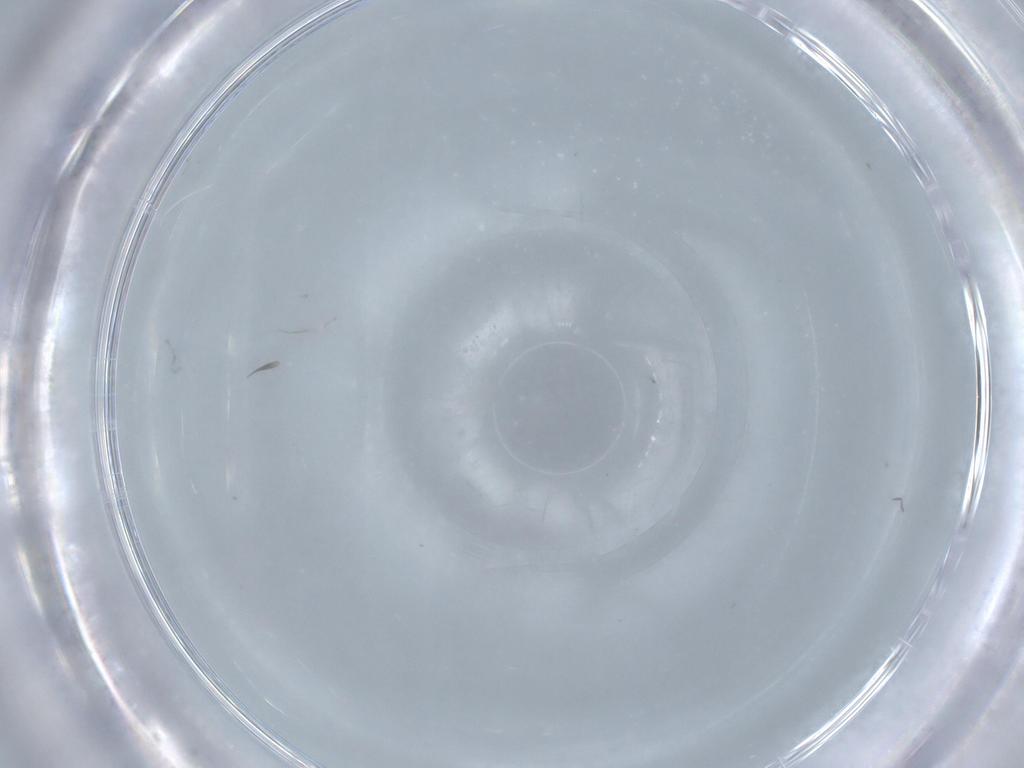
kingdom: Animalia
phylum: Arthropoda
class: Insecta
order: Diptera
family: Cecidomyiidae
